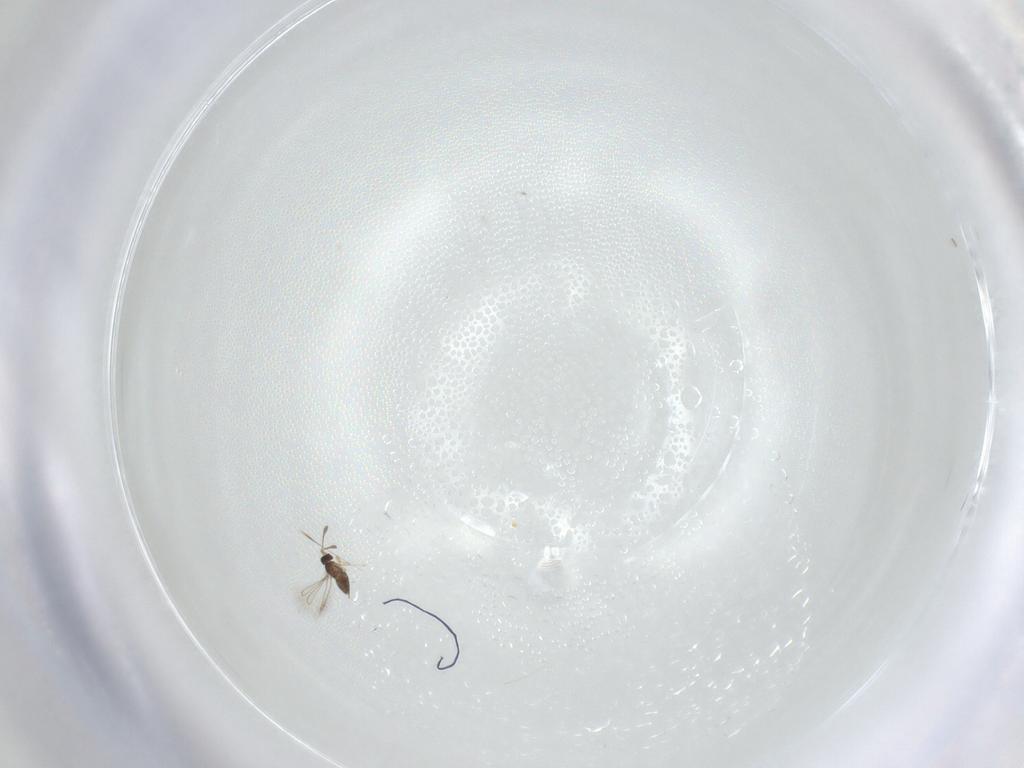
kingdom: Animalia
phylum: Arthropoda
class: Insecta
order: Hymenoptera
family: Formicidae
